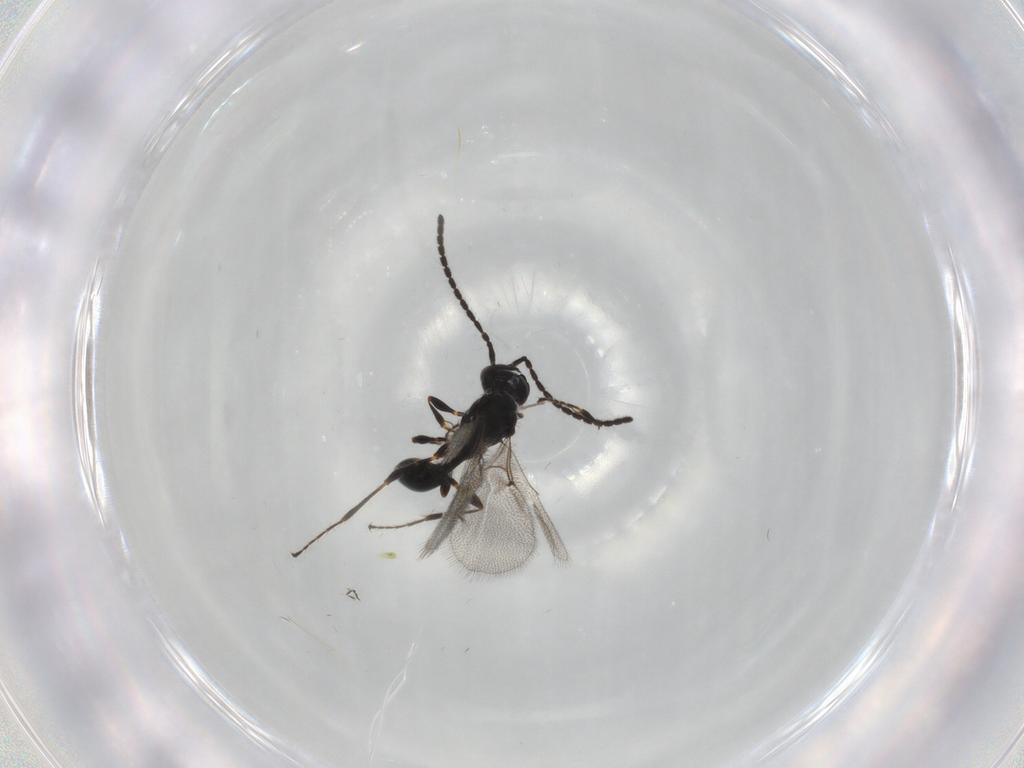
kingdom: Animalia
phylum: Arthropoda
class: Insecta
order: Hymenoptera
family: Diapriidae
